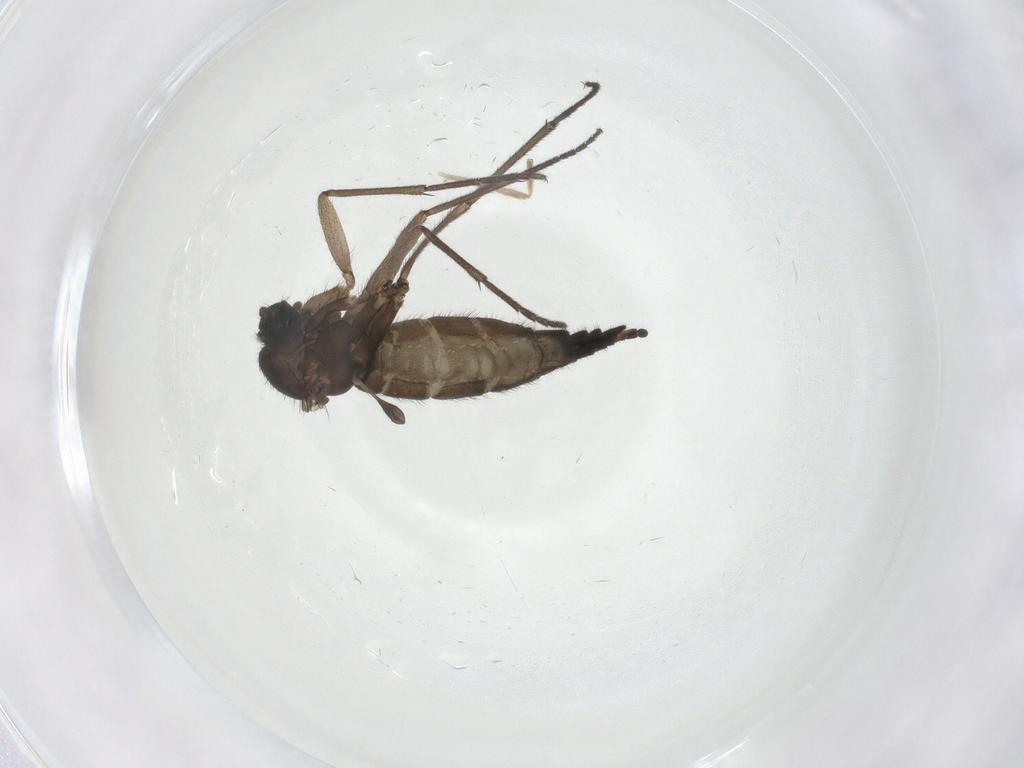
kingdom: Animalia
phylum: Arthropoda
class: Insecta
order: Diptera
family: Sciaridae
